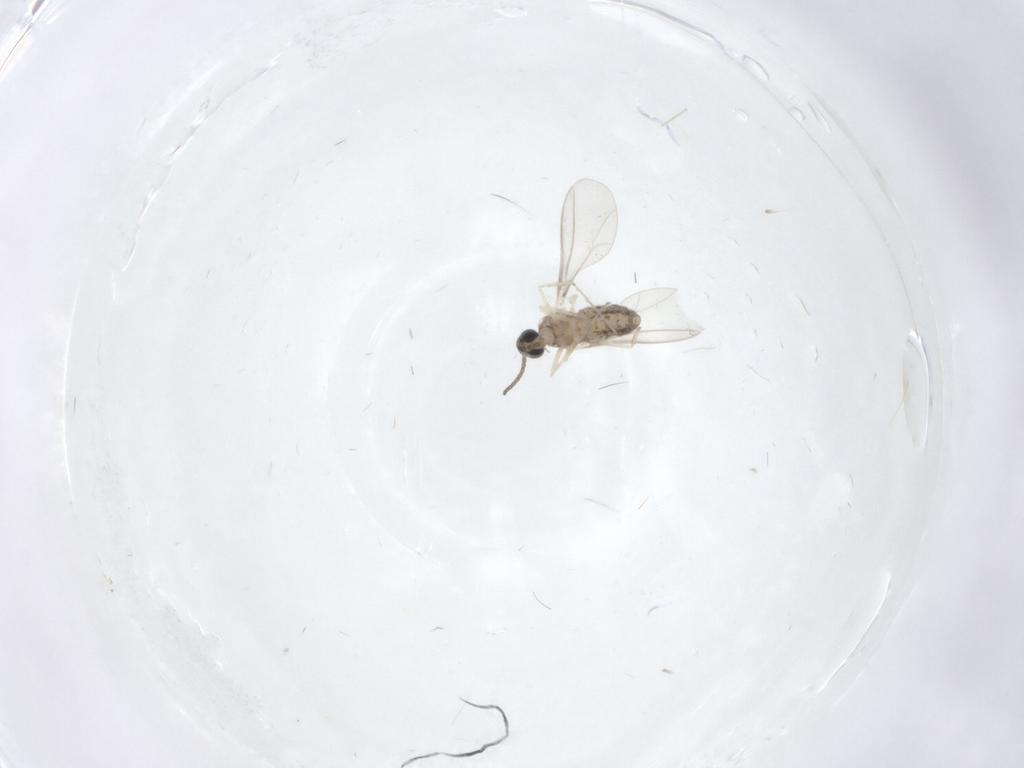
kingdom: Animalia
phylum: Arthropoda
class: Insecta
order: Diptera
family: Cecidomyiidae
